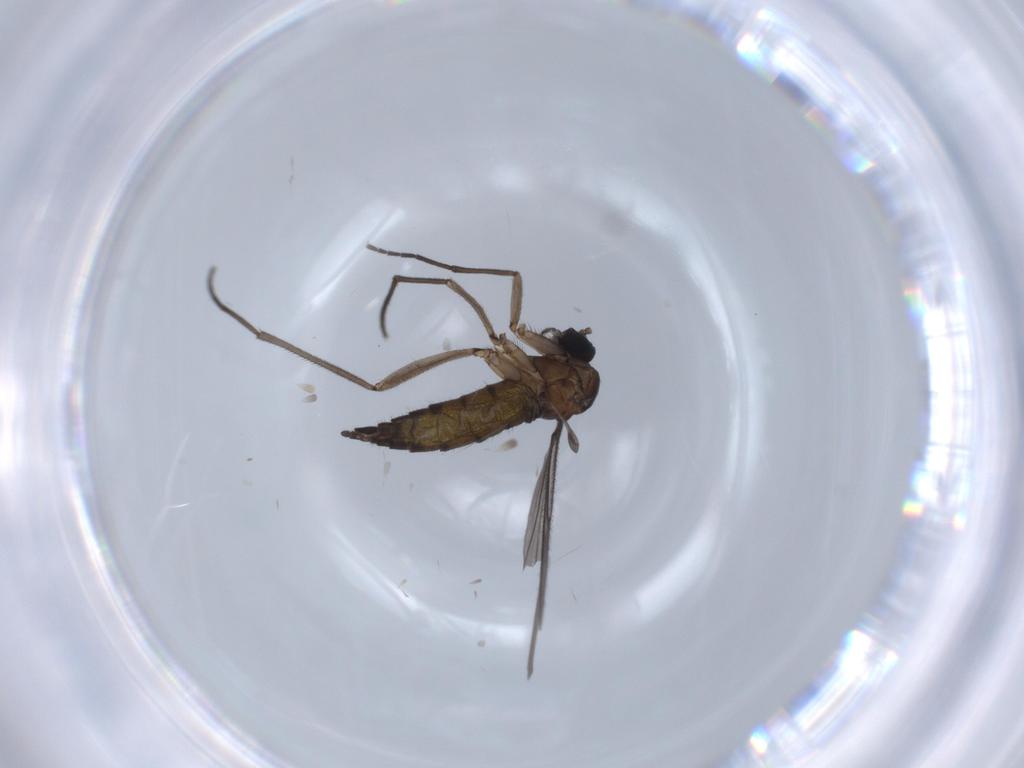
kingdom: Animalia
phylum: Arthropoda
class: Insecta
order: Diptera
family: Sciaridae
